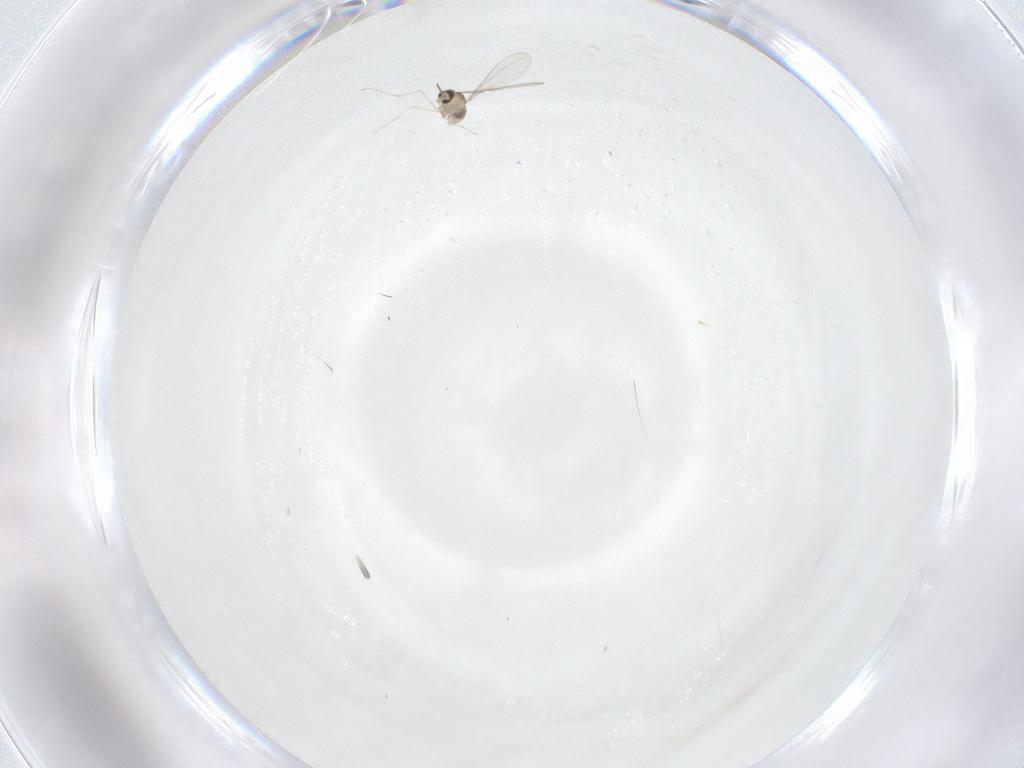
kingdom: Animalia
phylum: Arthropoda
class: Insecta
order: Diptera
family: Cecidomyiidae
